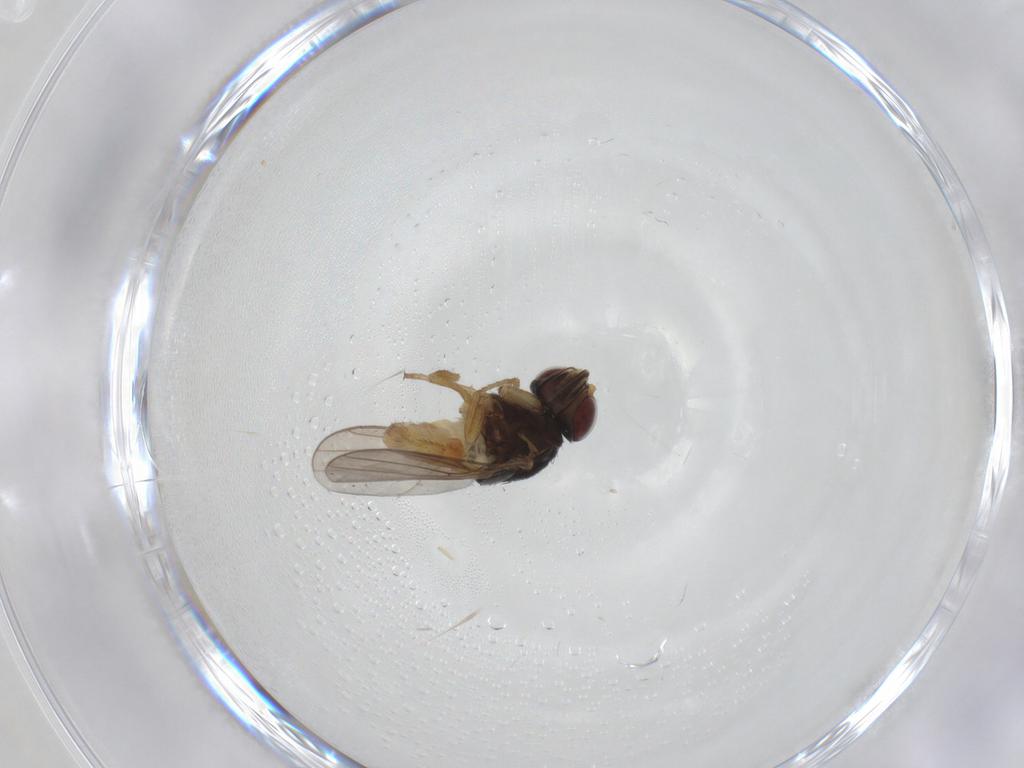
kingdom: Animalia
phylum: Arthropoda
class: Insecta
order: Diptera
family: Chloropidae
